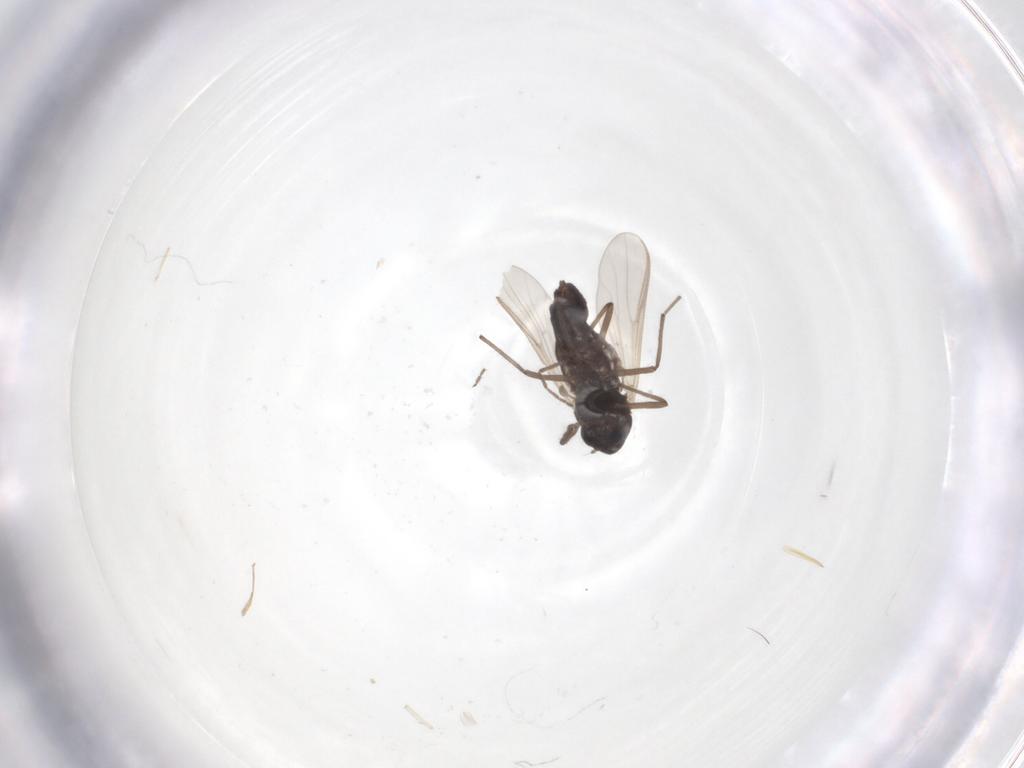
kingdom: Animalia
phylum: Arthropoda
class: Insecta
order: Diptera
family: Chironomidae
